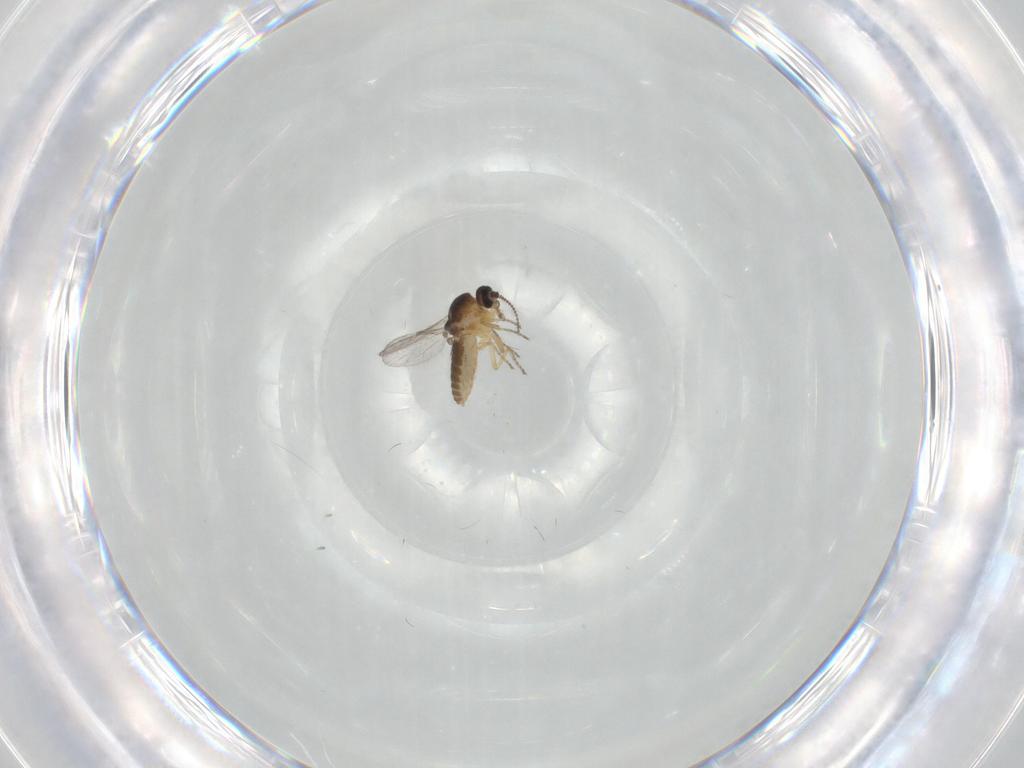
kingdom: Animalia
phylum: Arthropoda
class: Insecta
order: Diptera
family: Ceratopogonidae
